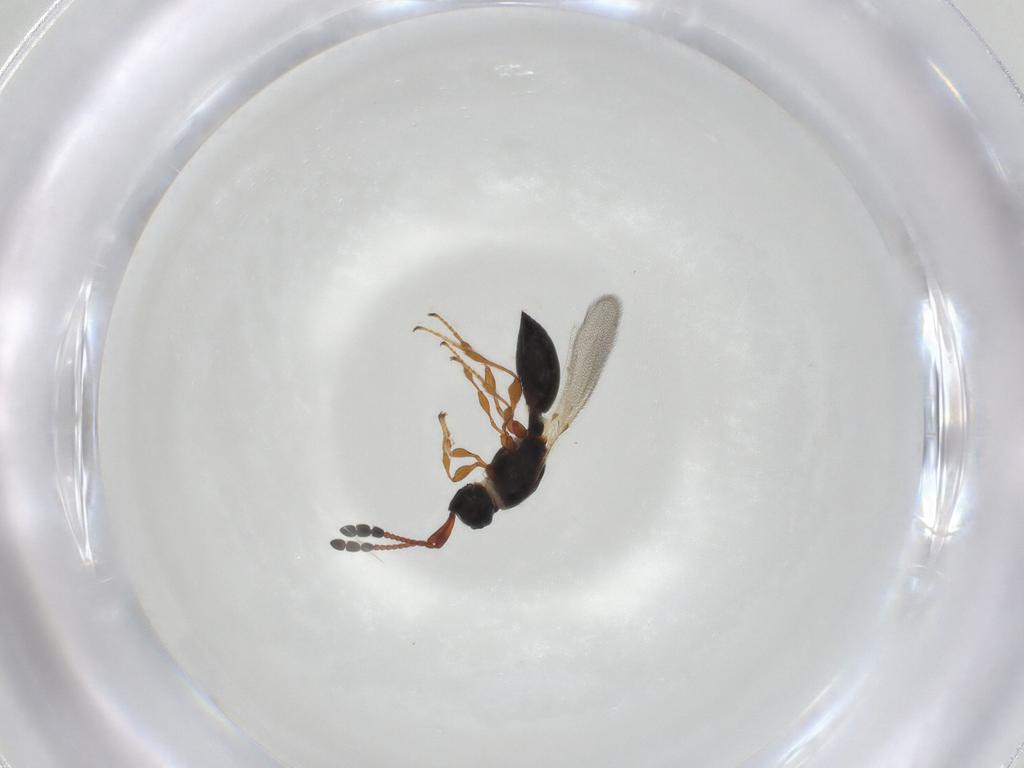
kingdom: Animalia
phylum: Arthropoda
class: Insecta
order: Hymenoptera
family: Diapriidae
